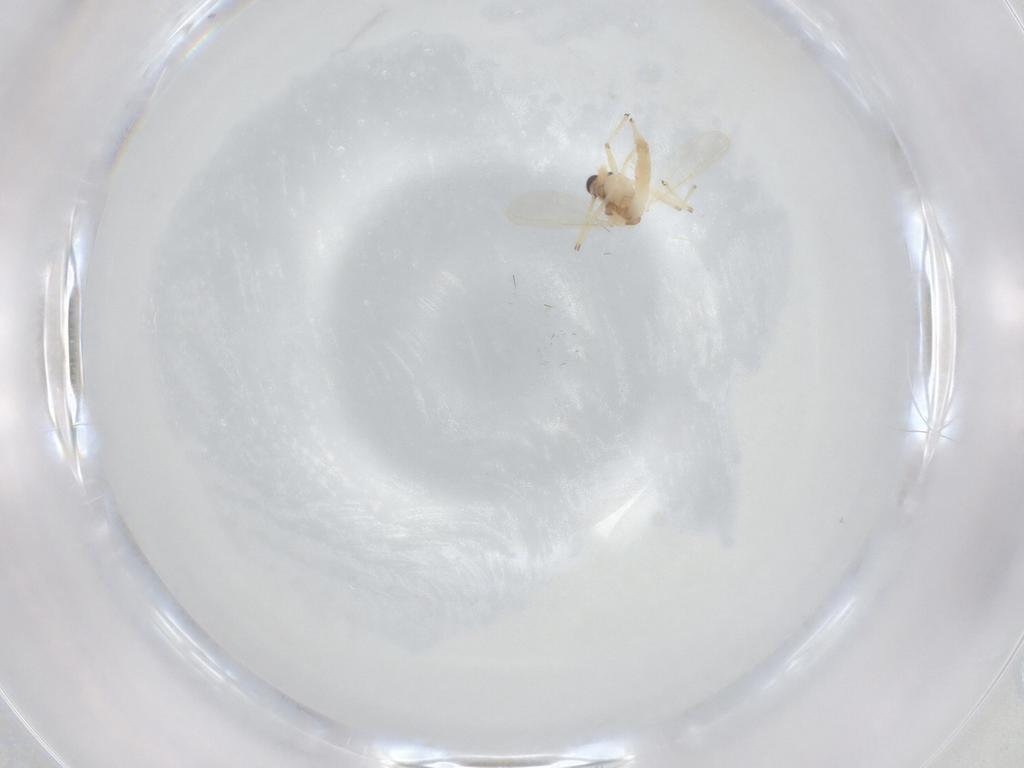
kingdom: Animalia
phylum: Arthropoda
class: Insecta
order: Diptera
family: Chironomidae
